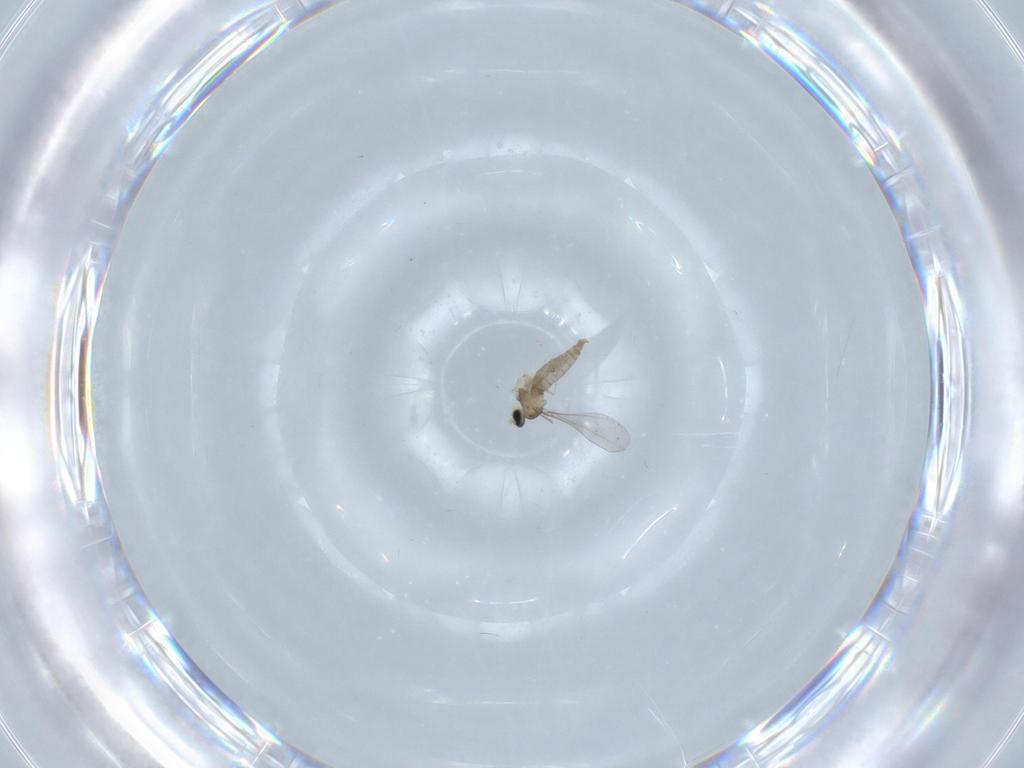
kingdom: Animalia
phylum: Arthropoda
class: Insecta
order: Diptera
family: Cecidomyiidae
